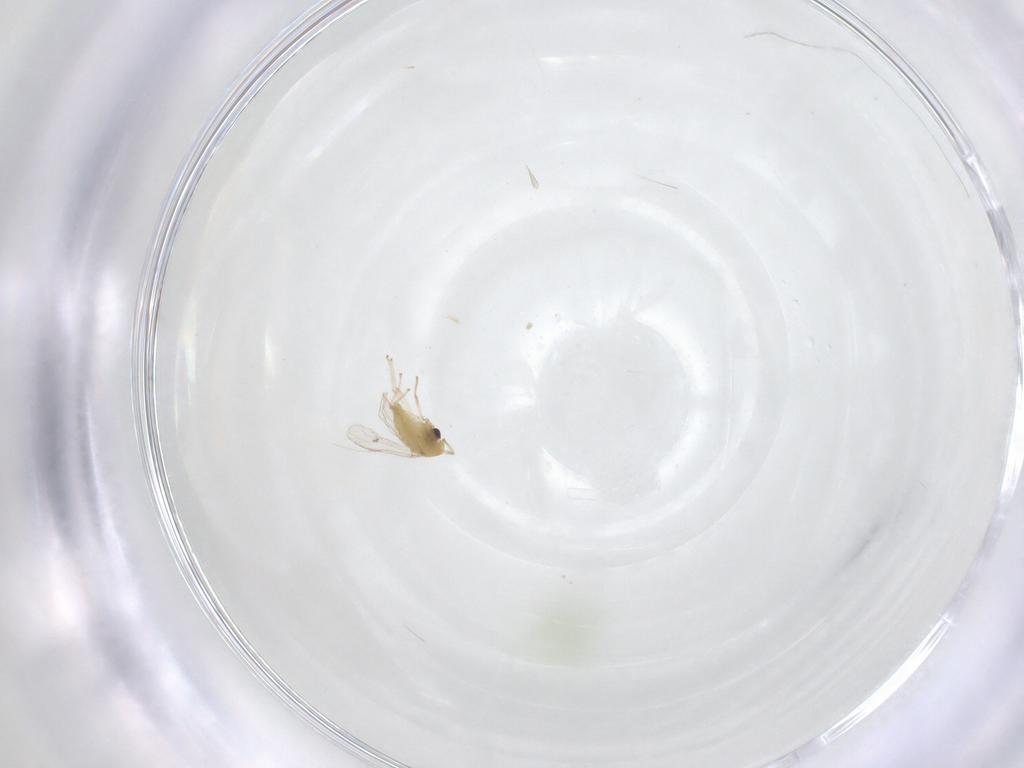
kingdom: Animalia
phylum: Arthropoda
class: Insecta
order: Diptera
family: Chironomidae
